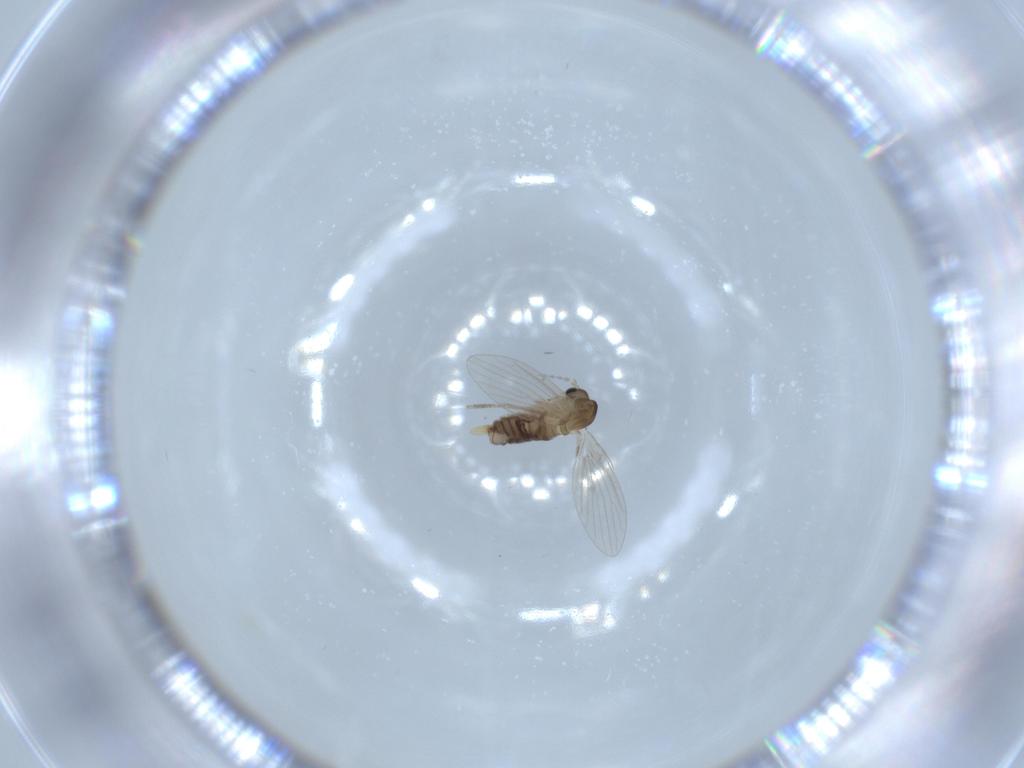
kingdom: Animalia
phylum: Arthropoda
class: Insecta
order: Diptera
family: Psychodidae
